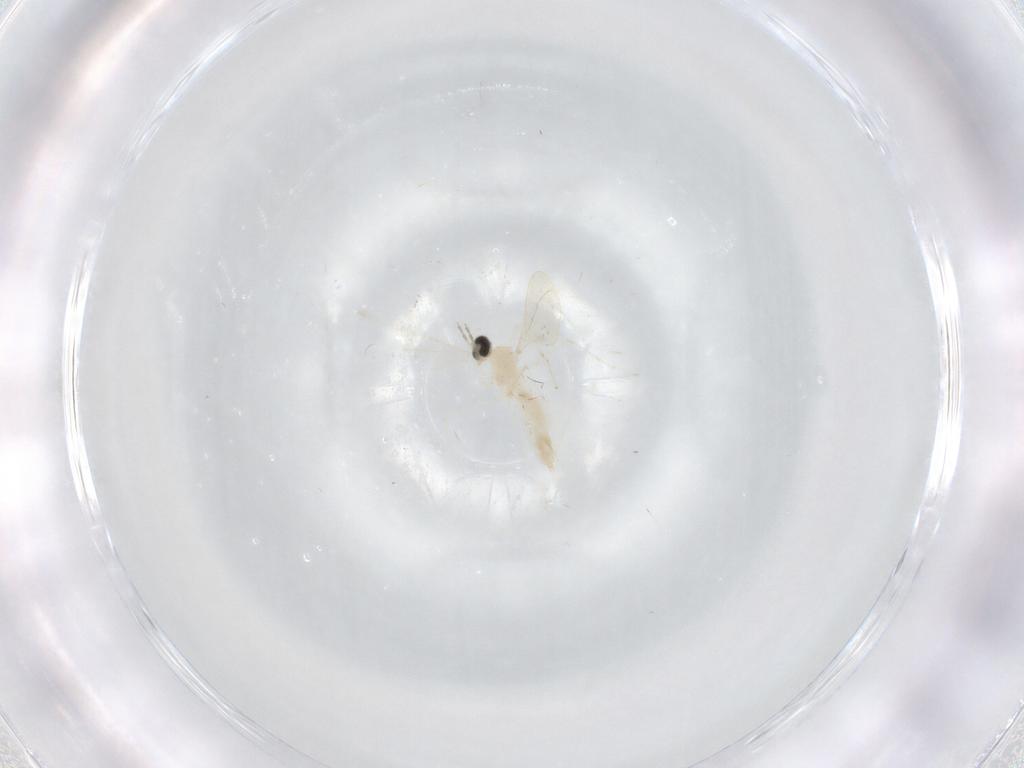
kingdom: Animalia
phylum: Arthropoda
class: Insecta
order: Diptera
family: Cecidomyiidae
